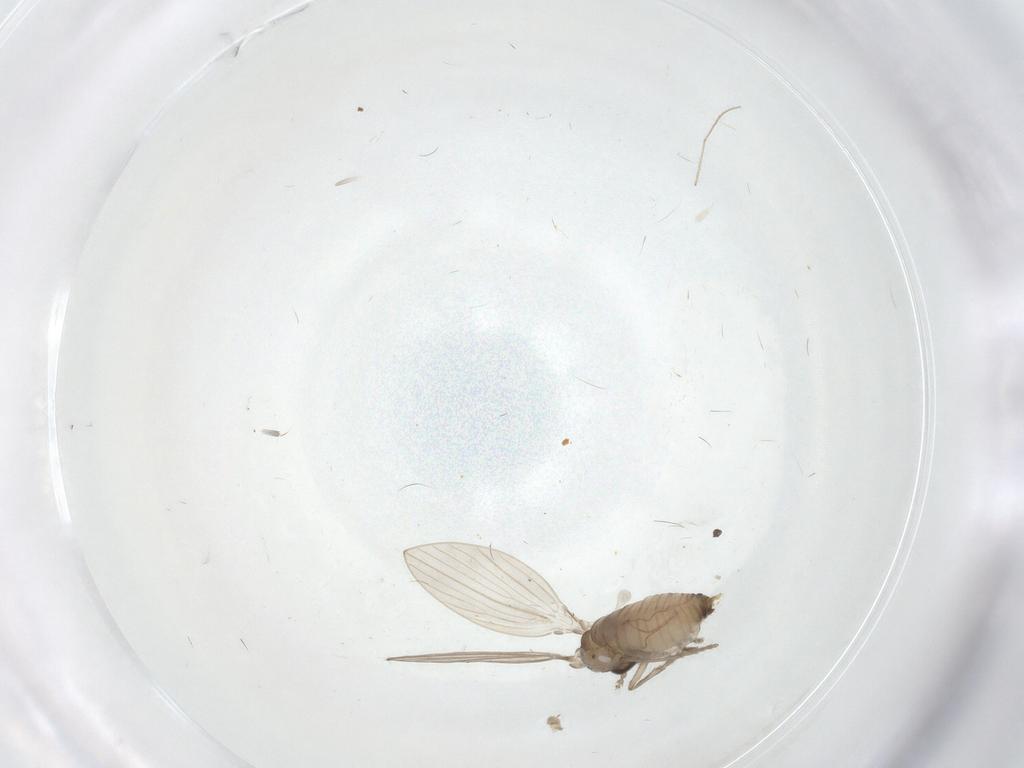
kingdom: Animalia
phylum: Arthropoda
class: Insecta
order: Diptera
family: Psychodidae
